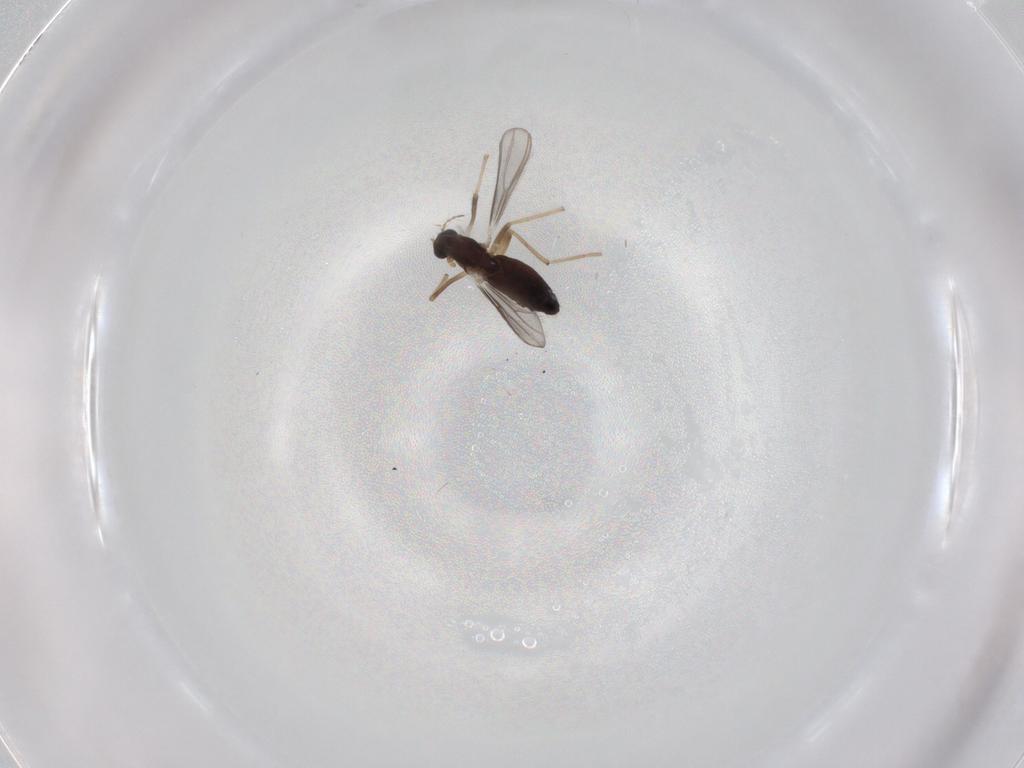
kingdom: Animalia
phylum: Arthropoda
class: Insecta
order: Diptera
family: Chironomidae
